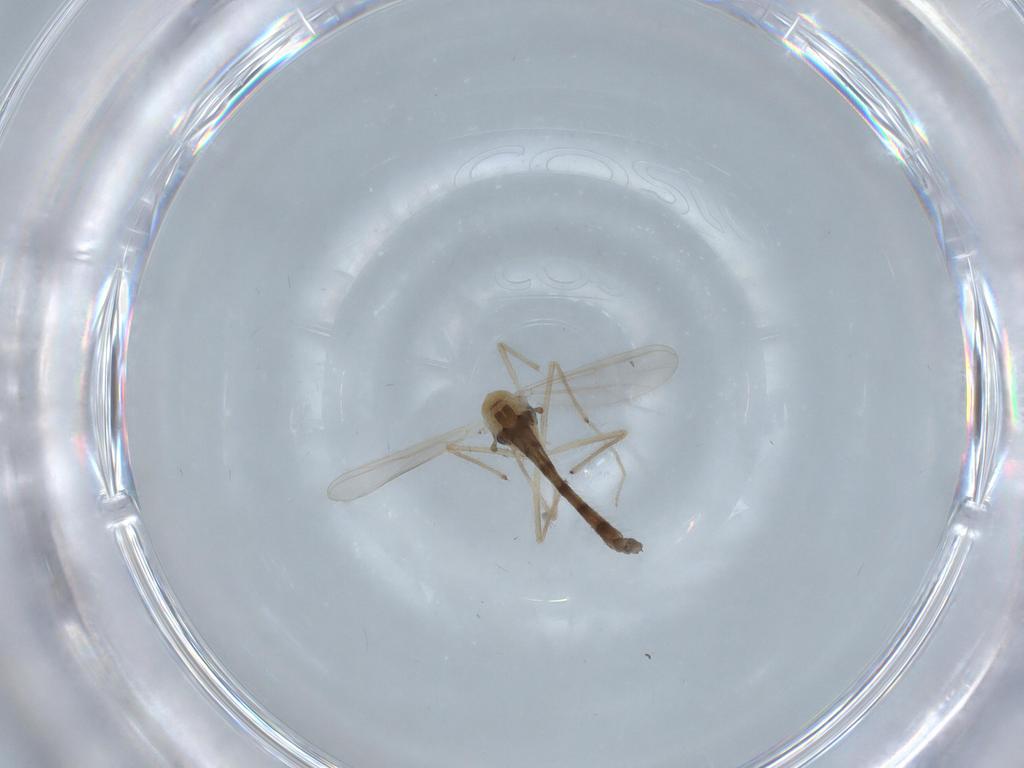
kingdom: Animalia
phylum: Arthropoda
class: Insecta
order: Diptera
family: Chironomidae
